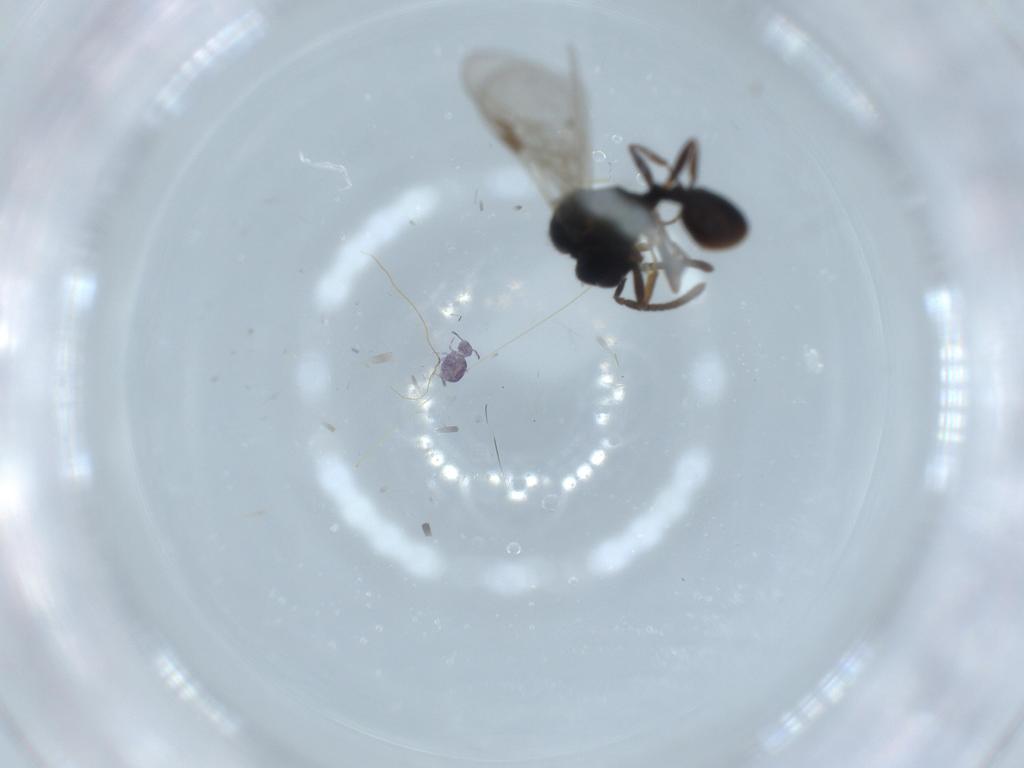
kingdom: Animalia
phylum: Arthropoda
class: Collembola
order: Symphypleona
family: Sminthurididae
